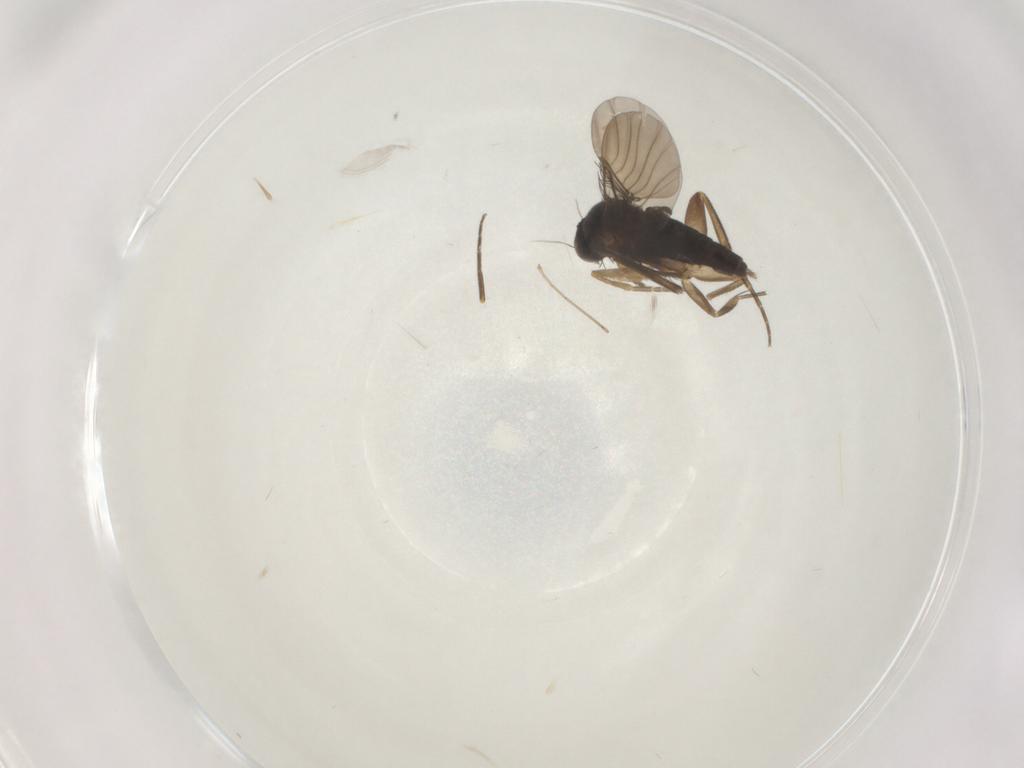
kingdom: Animalia
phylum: Arthropoda
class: Insecta
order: Diptera
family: Phoridae
